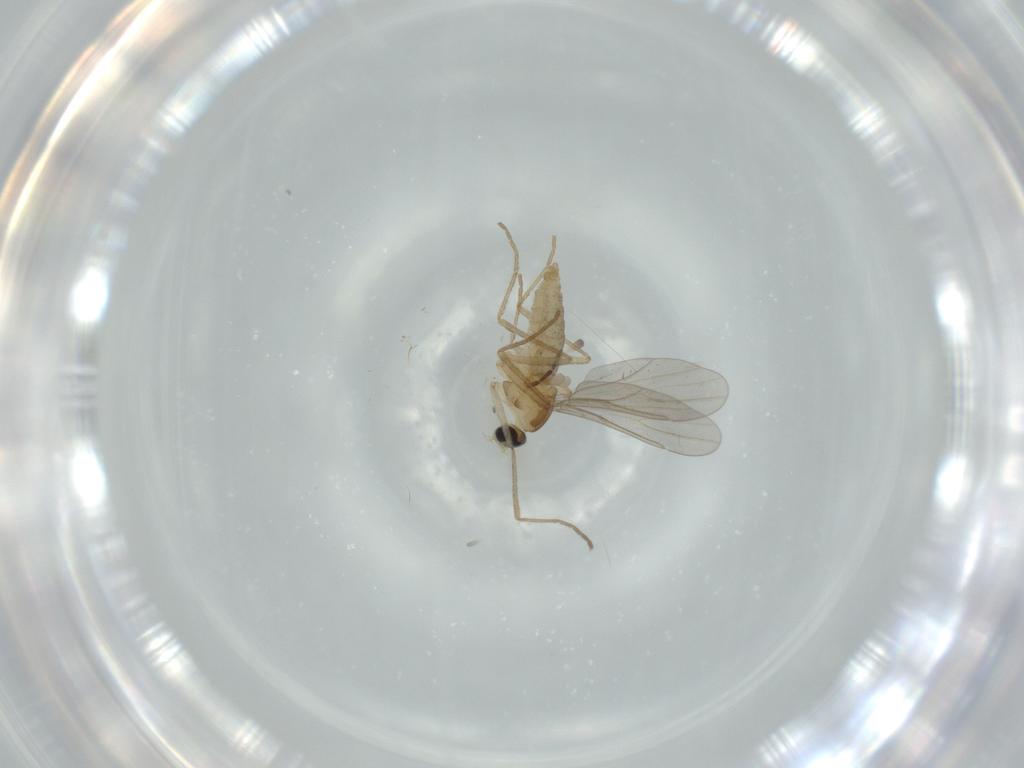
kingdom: Animalia
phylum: Arthropoda
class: Insecta
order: Diptera
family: Cecidomyiidae
